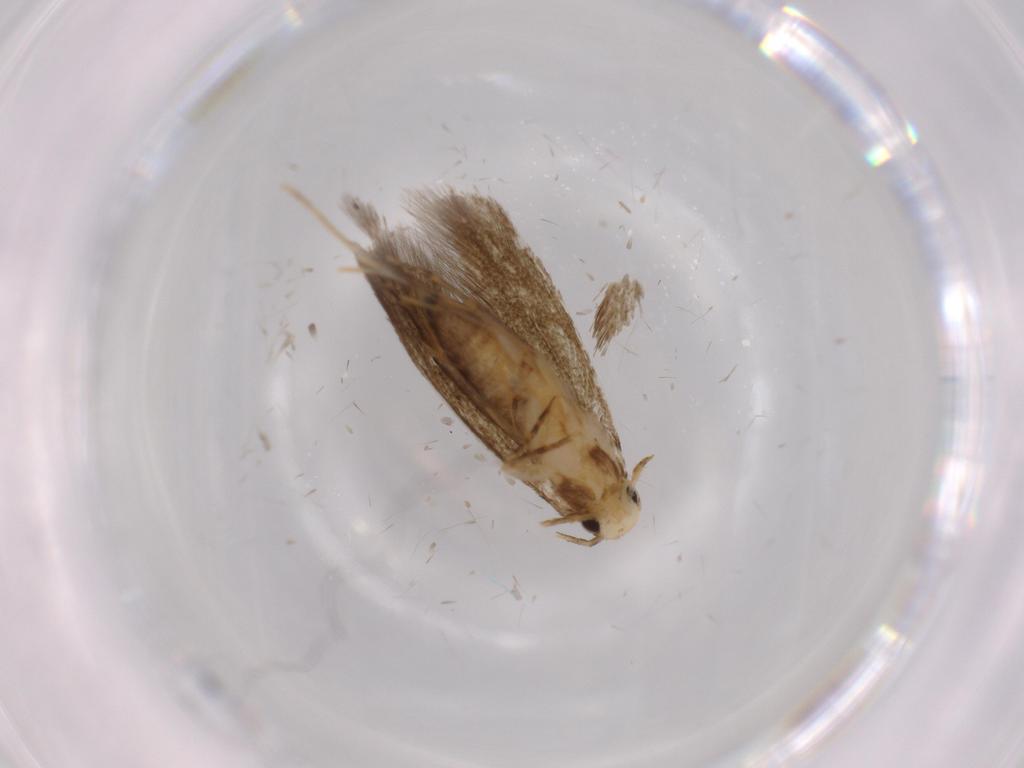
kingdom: Animalia
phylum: Arthropoda
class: Insecta
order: Lepidoptera
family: Tineidae
